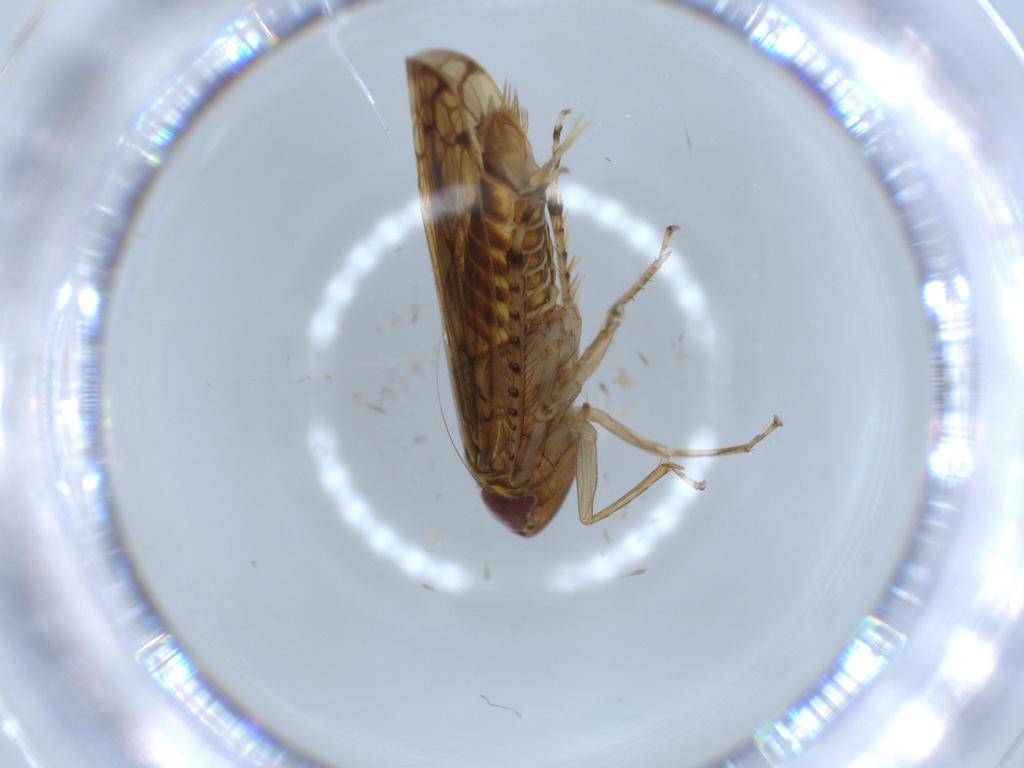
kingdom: Animalia
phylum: Arthropoda
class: Insecta
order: Hemiptera
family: Cicadellidae
